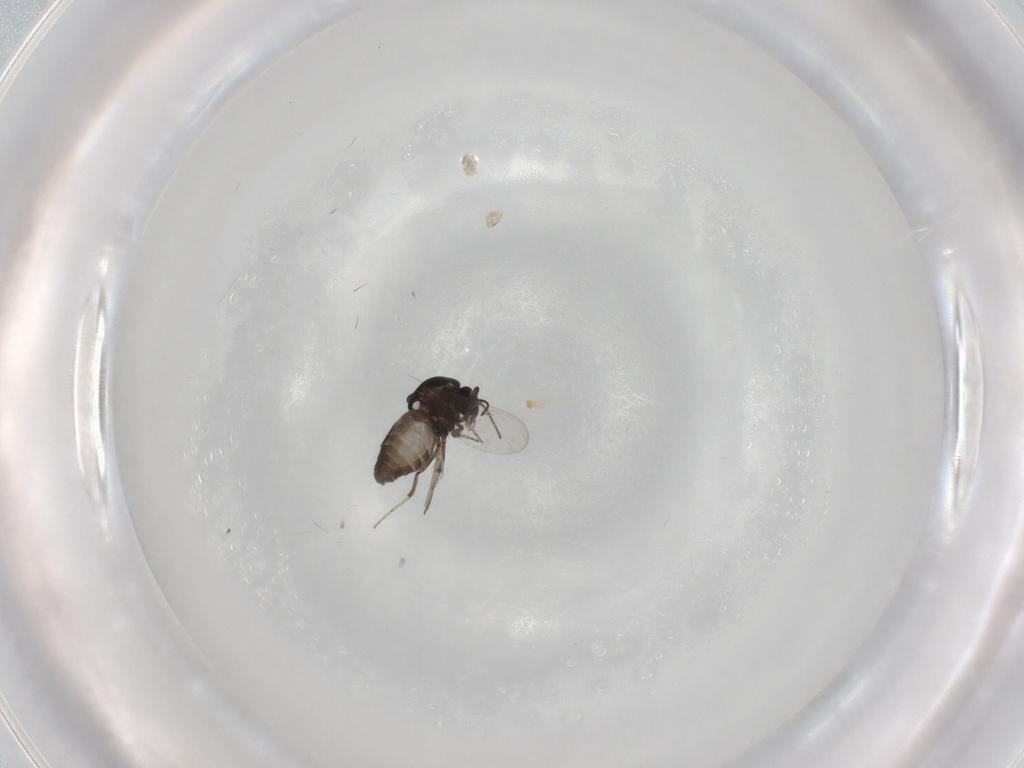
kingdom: Animalia
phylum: Arthropoda
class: Insecta
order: Diptera
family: Ceratopogonidae
